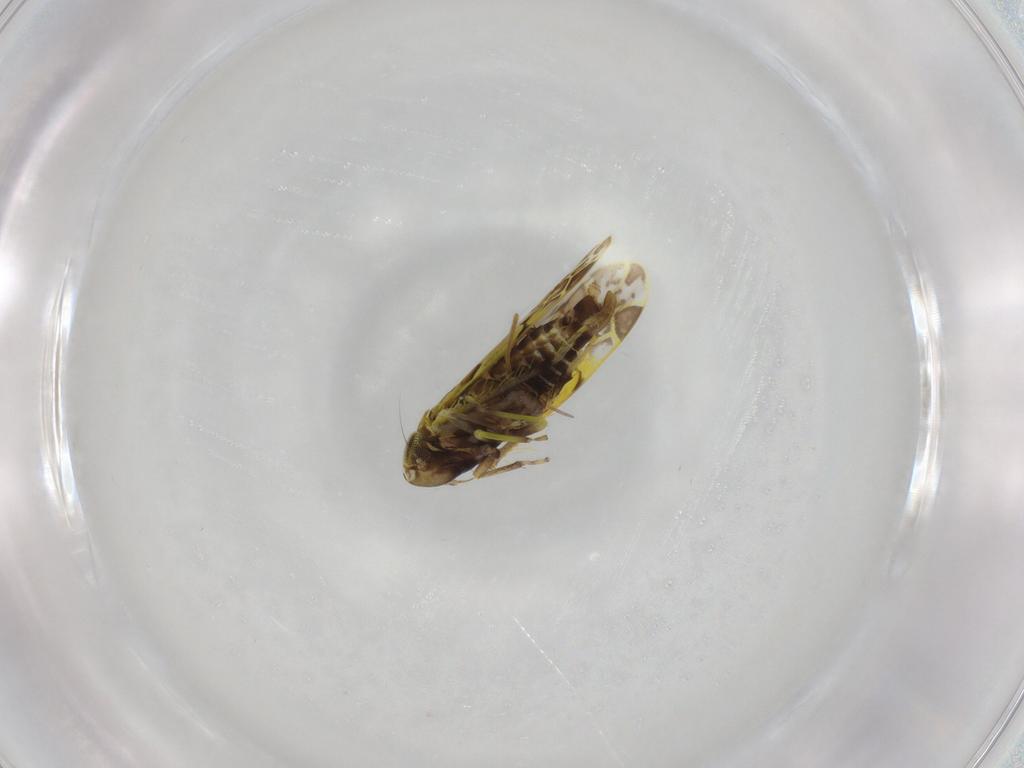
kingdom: Animalia
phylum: Arthropoda
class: Insecta
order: Hemiptera
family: Cicadellidae
